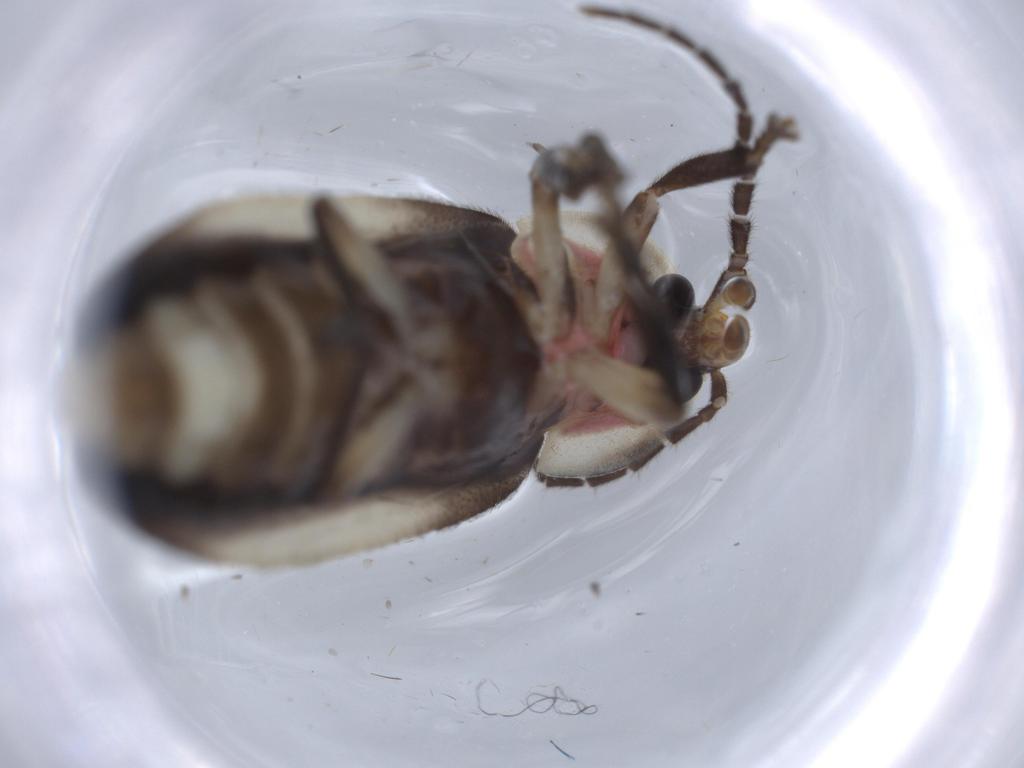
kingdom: Animalia
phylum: Arthropoda
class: Insecta
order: Coleoptera
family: Lampyridae
